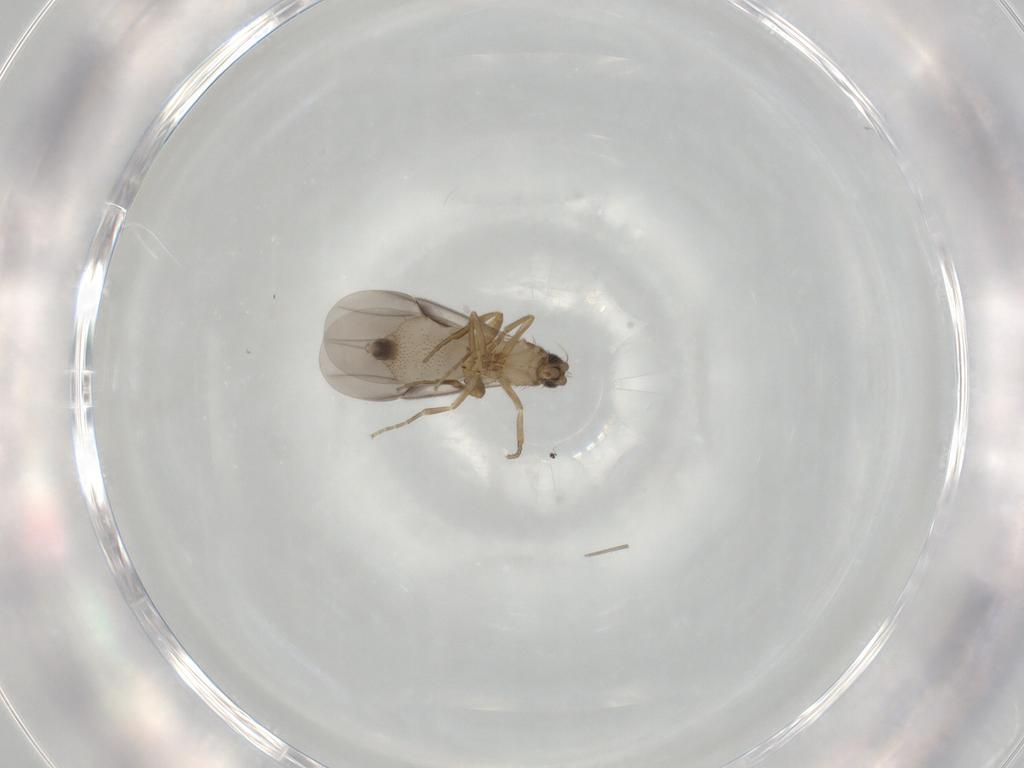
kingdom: Animalia
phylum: Arthropoda
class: Insecta
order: Diptera
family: Phoridae
